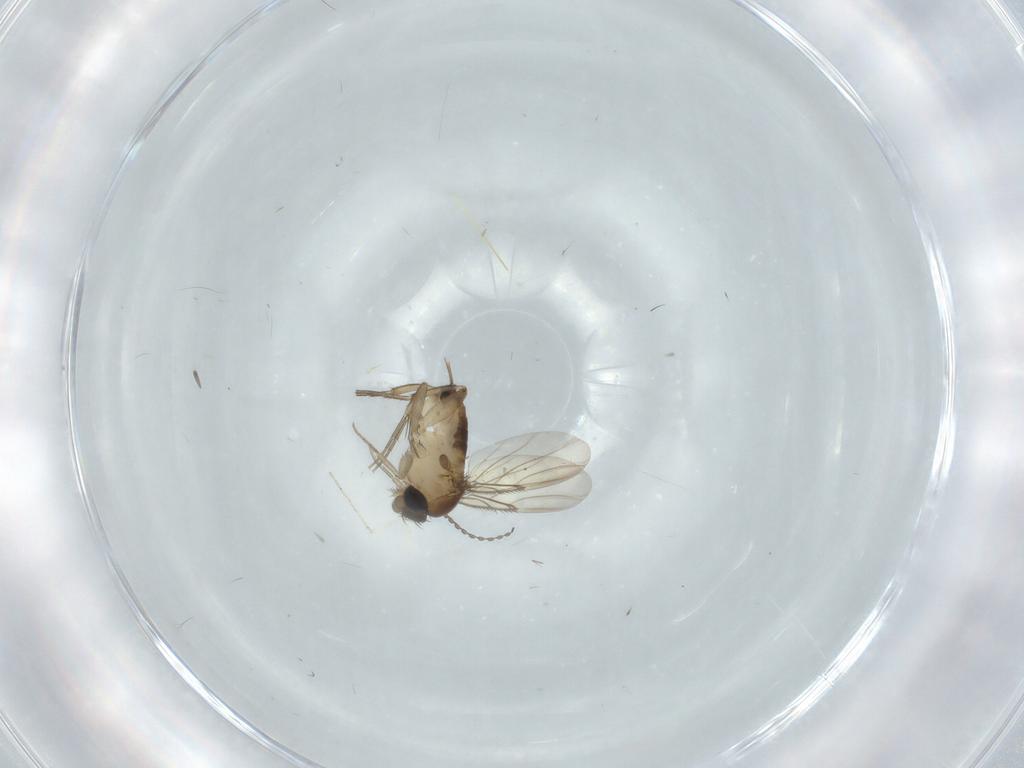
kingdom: Animalia
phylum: Arthropoda
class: Insecta
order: Diptera
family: Phoridae
